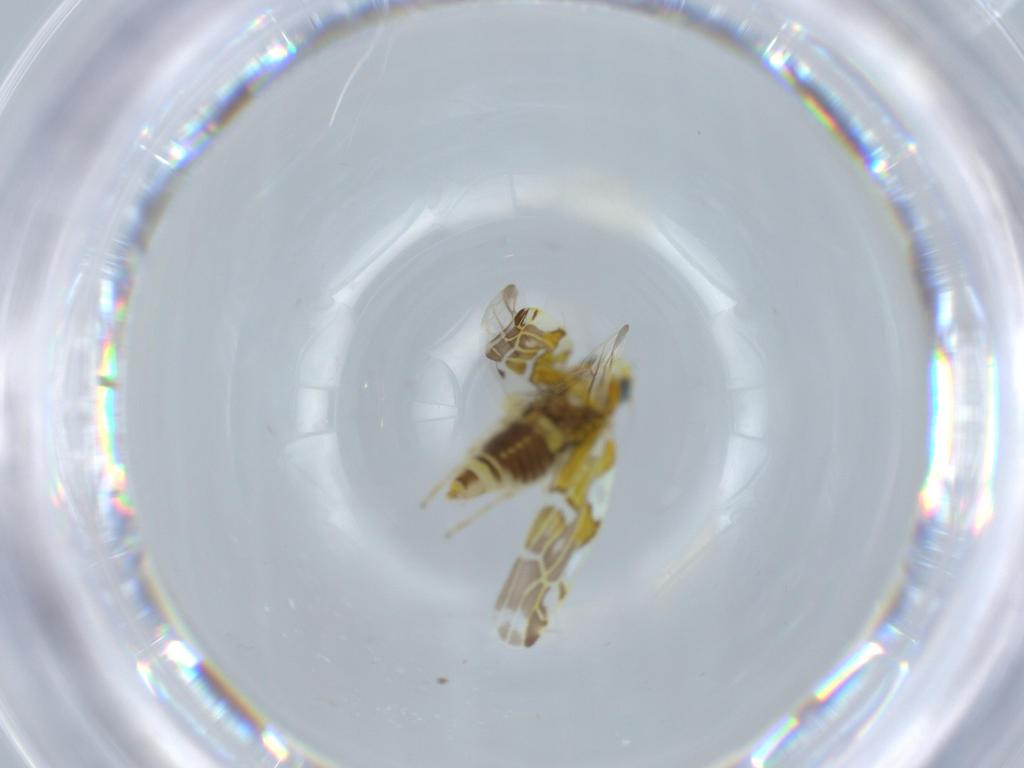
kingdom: Animalia
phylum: Arthropoda
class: Insecta
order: Hemiptera
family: Cicadellidae
